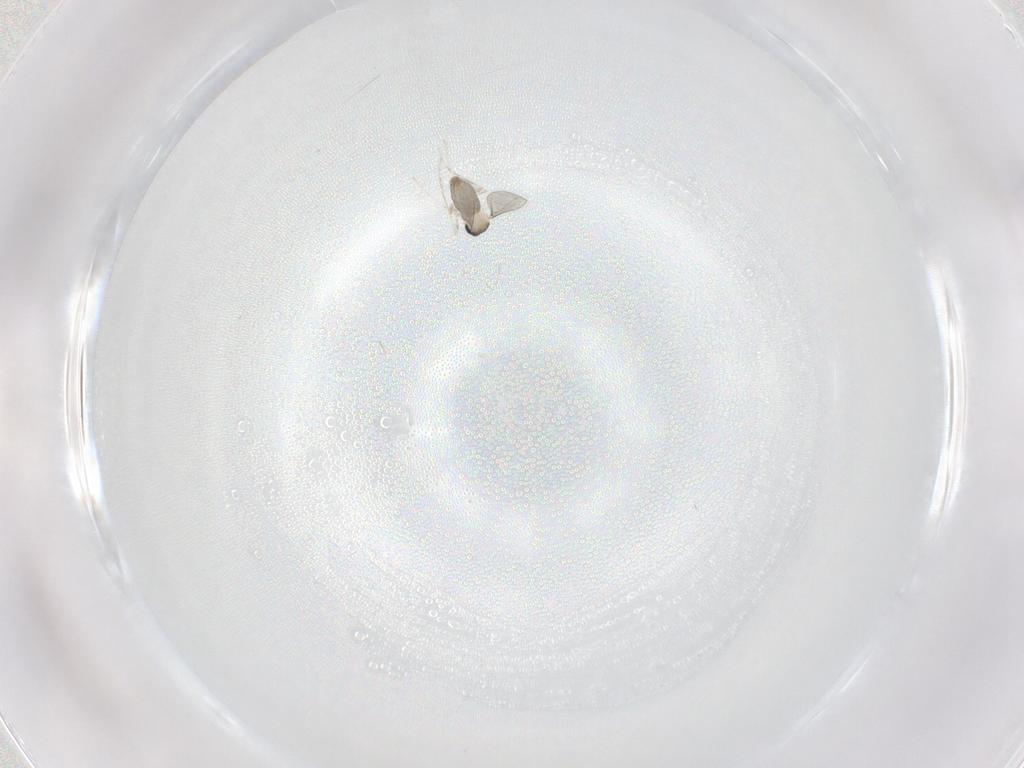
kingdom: Animalia
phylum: Arthropoda
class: Insecta
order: Diptera
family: Cecidomyiidae
